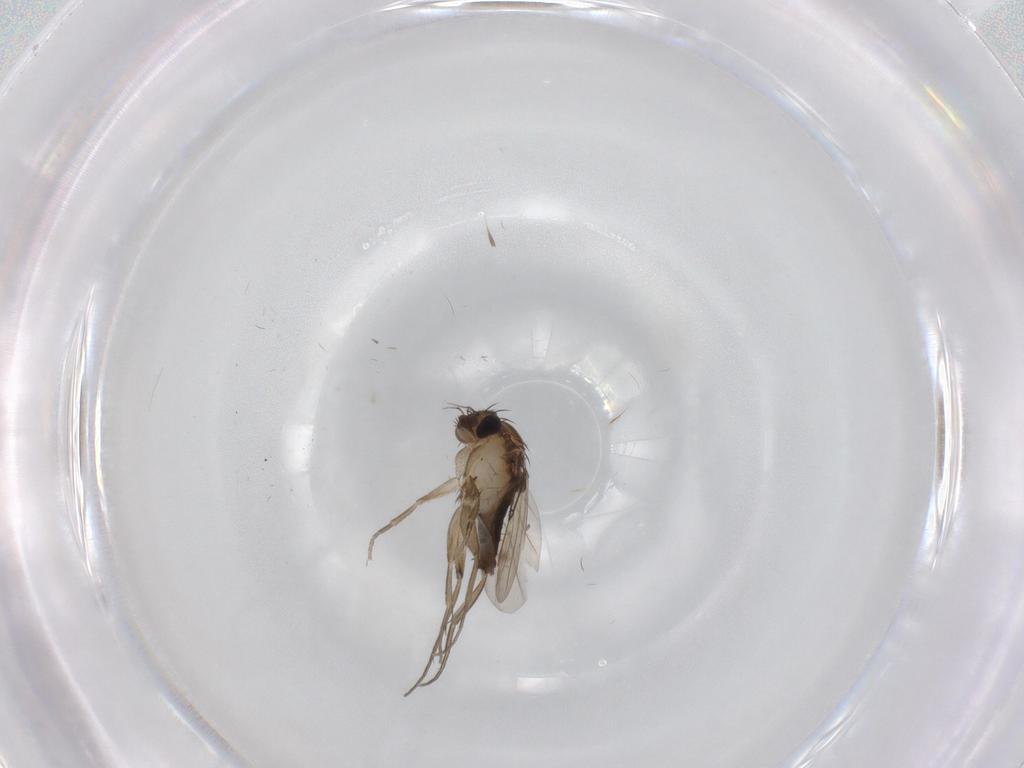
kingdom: Animalia
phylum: Arthropoda
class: Insecta
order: Diptera
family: Phoridae
